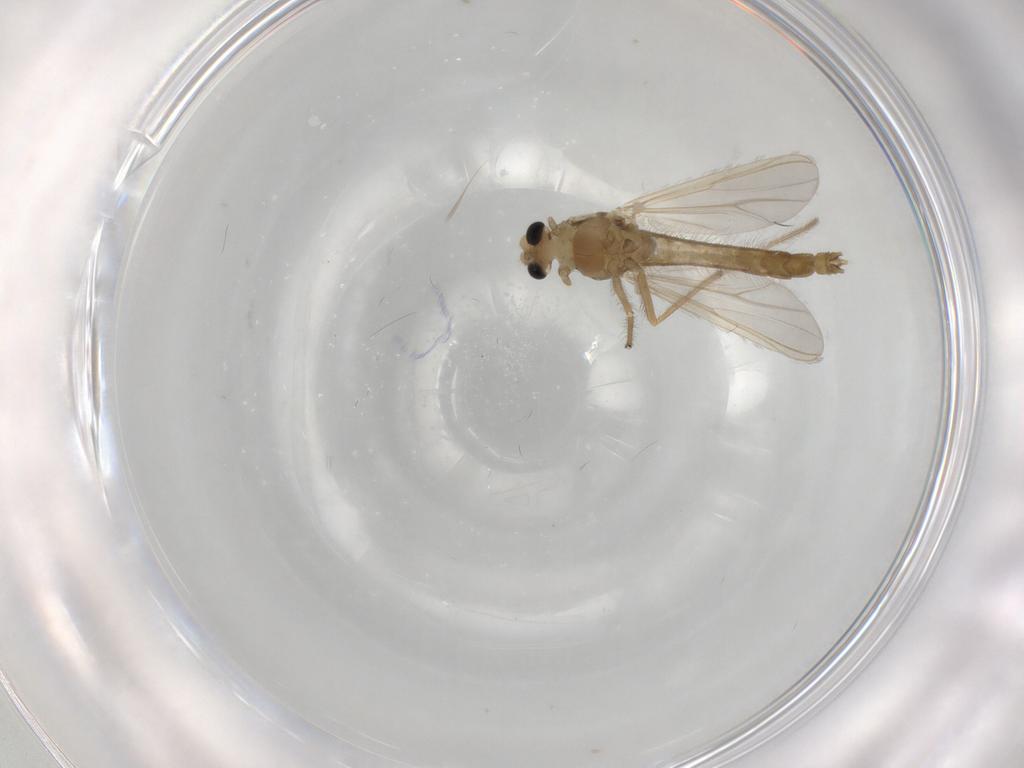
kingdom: Animalia
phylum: Arthropoda
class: Insecta
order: Diptera
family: Chironomidae
